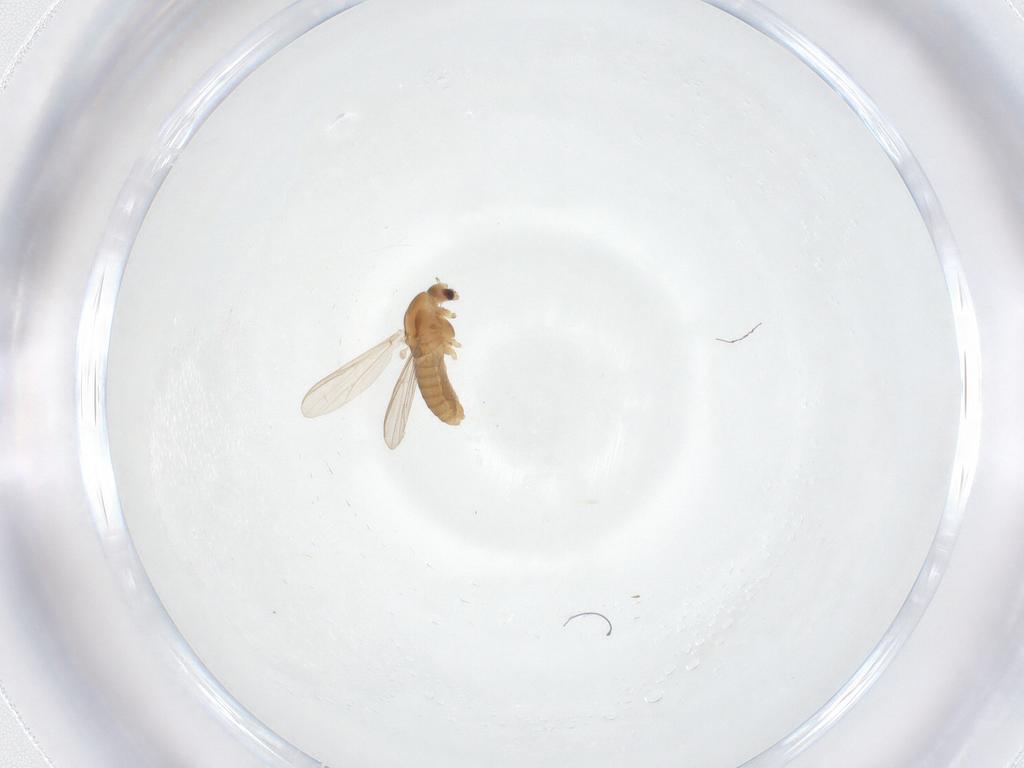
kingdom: Animalia
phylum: Arthropoda
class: Insecta
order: Diptera
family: Chironomidae
